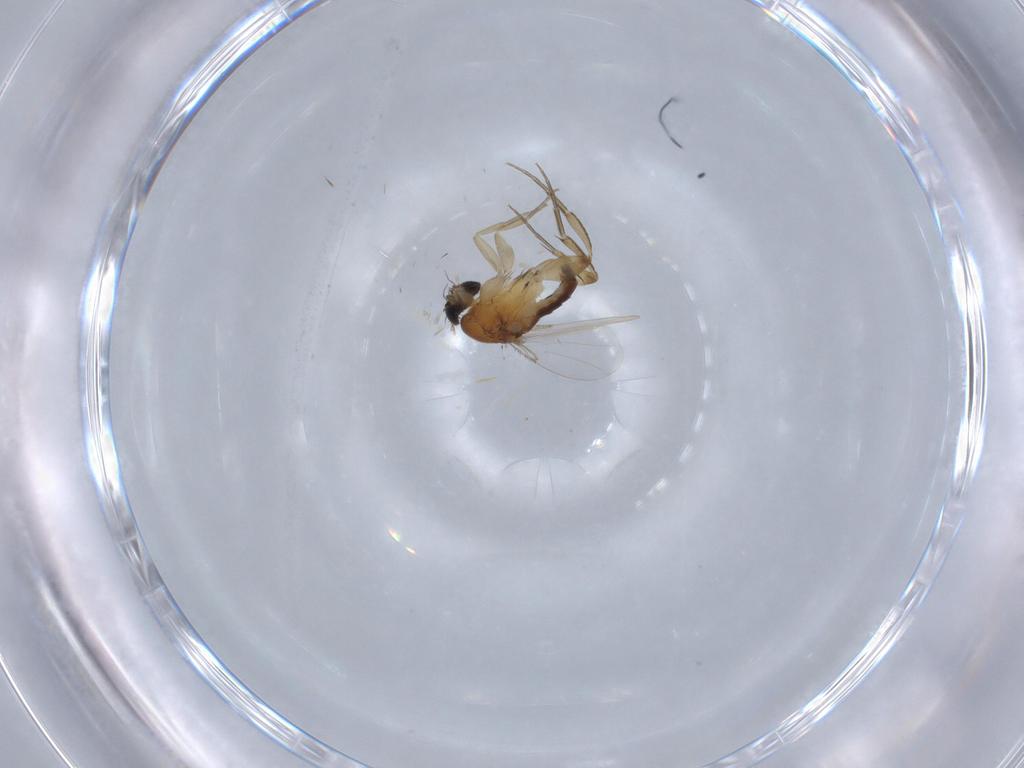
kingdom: Animalia
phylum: Arthropoda
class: Insecta
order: Diptera
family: Hybotidae
